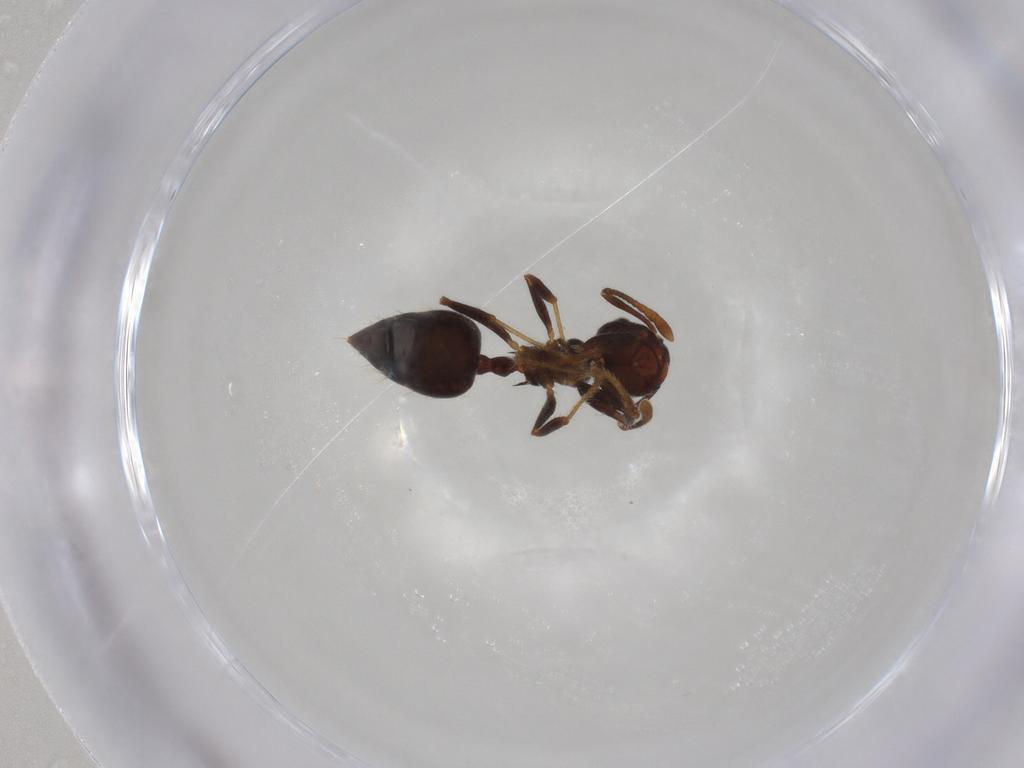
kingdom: Animalia
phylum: Arthropoda
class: Insecta
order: Hymenoptera
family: Formicidae
